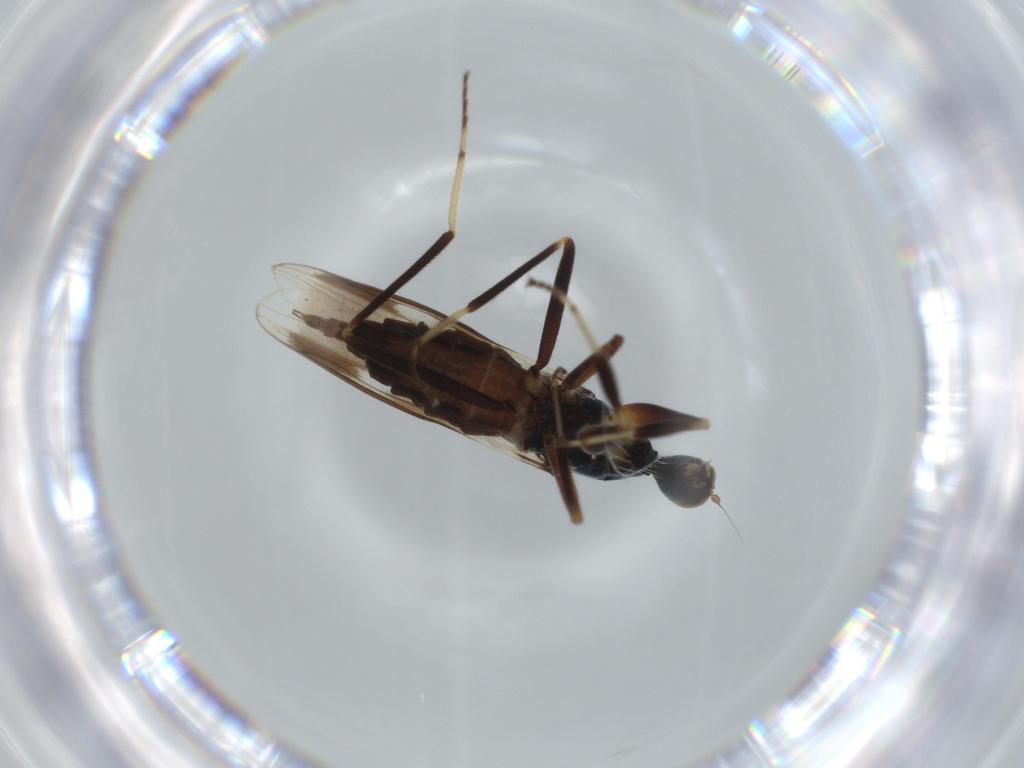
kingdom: Animalia
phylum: Arthropoda
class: Insecta
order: Diptera
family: Hybotidae
